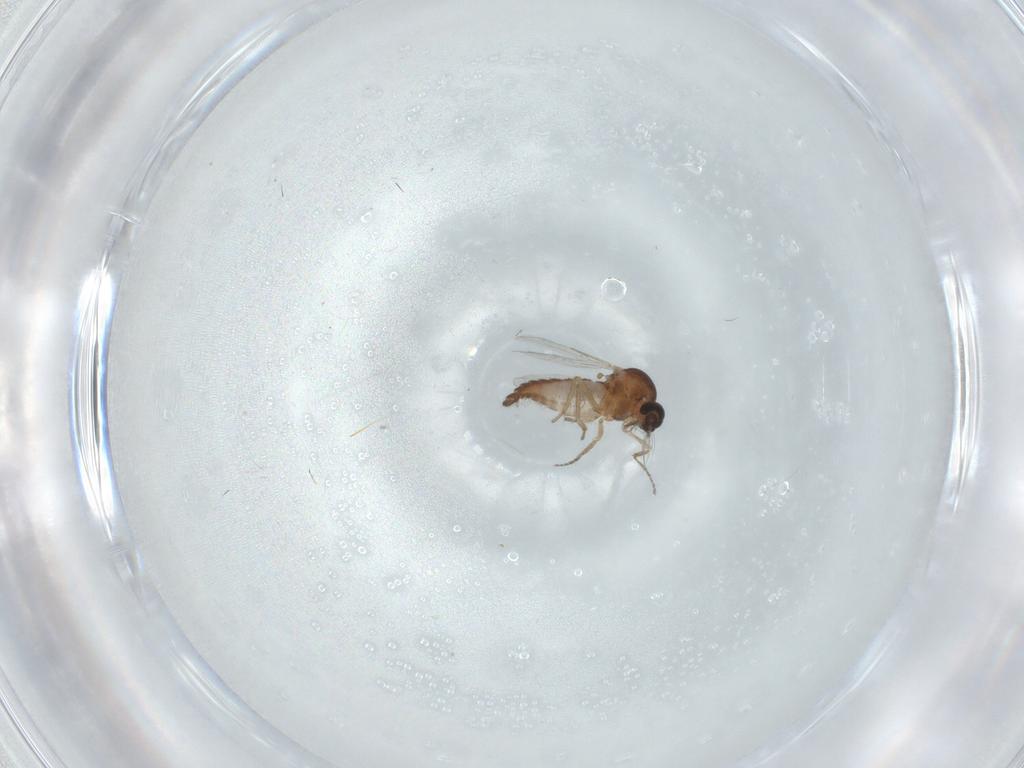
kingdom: Animalia
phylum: Arthropoda
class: Insecta
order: Diptera
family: Ceratopogonidae
